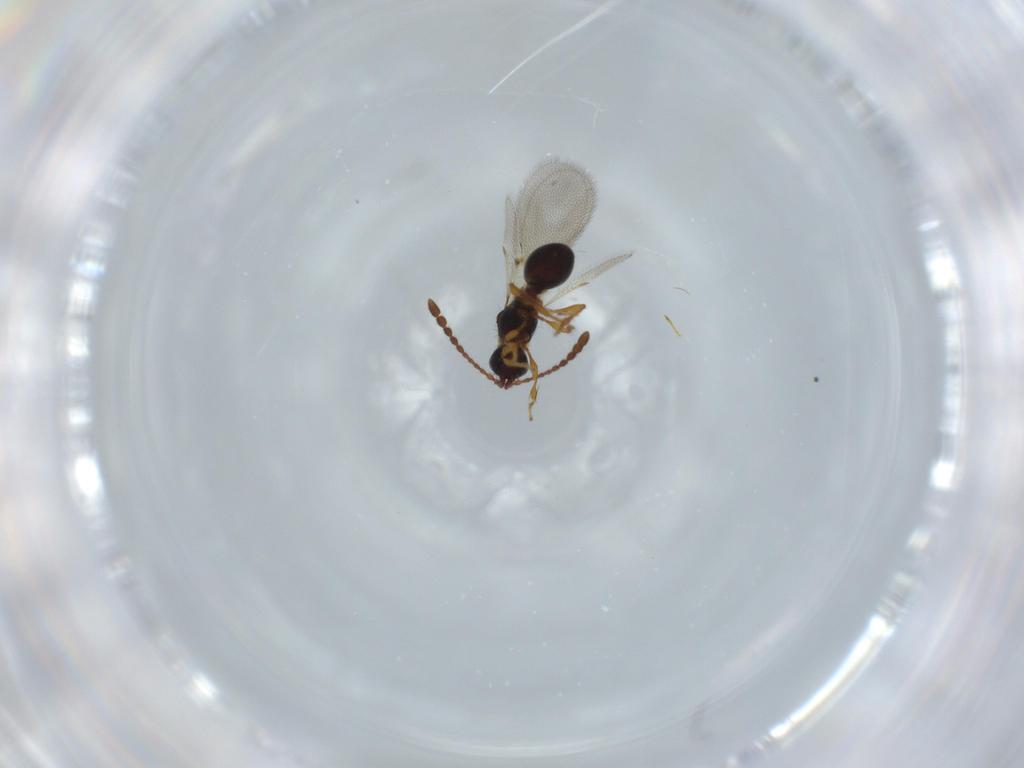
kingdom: Animalia
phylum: Arthropoda
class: Insecta
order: Hymenoptera
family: Diapriidae
